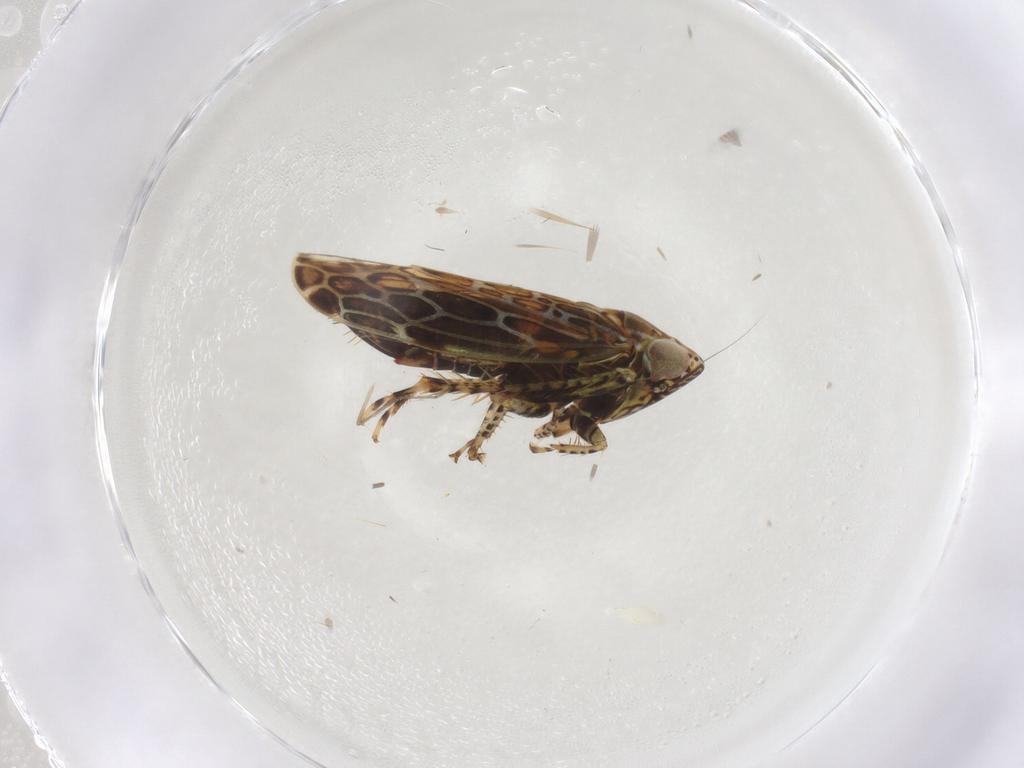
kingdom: Animalia
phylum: Arthropoda
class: Insecta
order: Hemiptera
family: Cicadellidae
